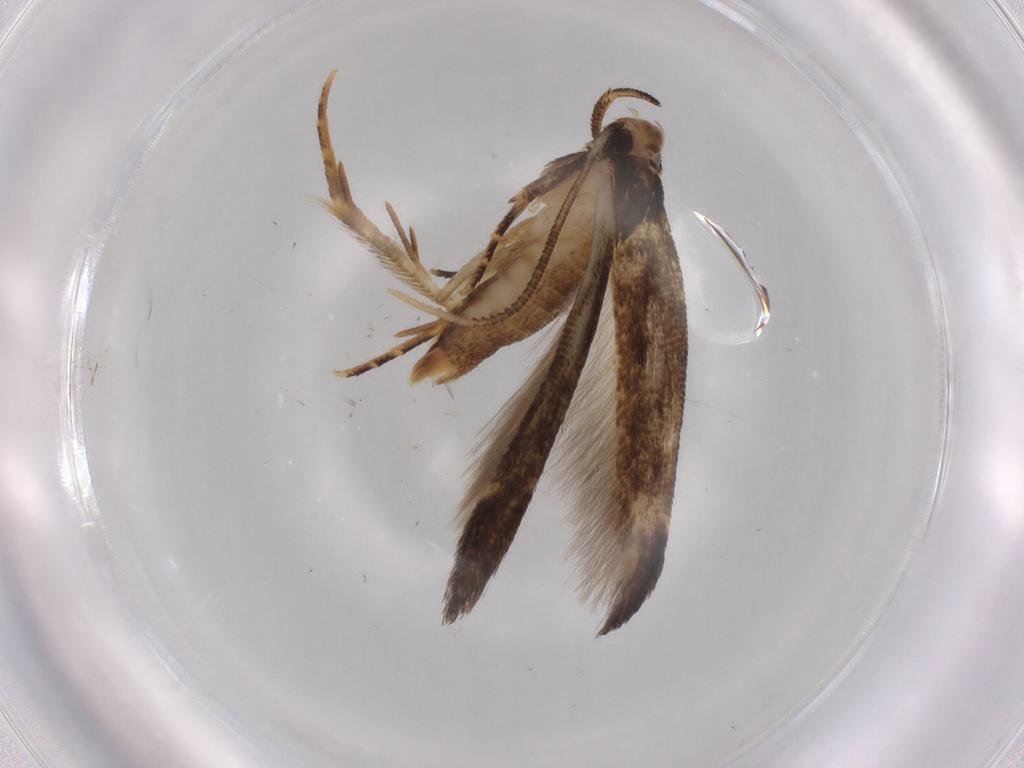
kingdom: Animalia
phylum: Arthropoda
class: Insecta
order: Lepidoptera
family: Cosmopterigidae
